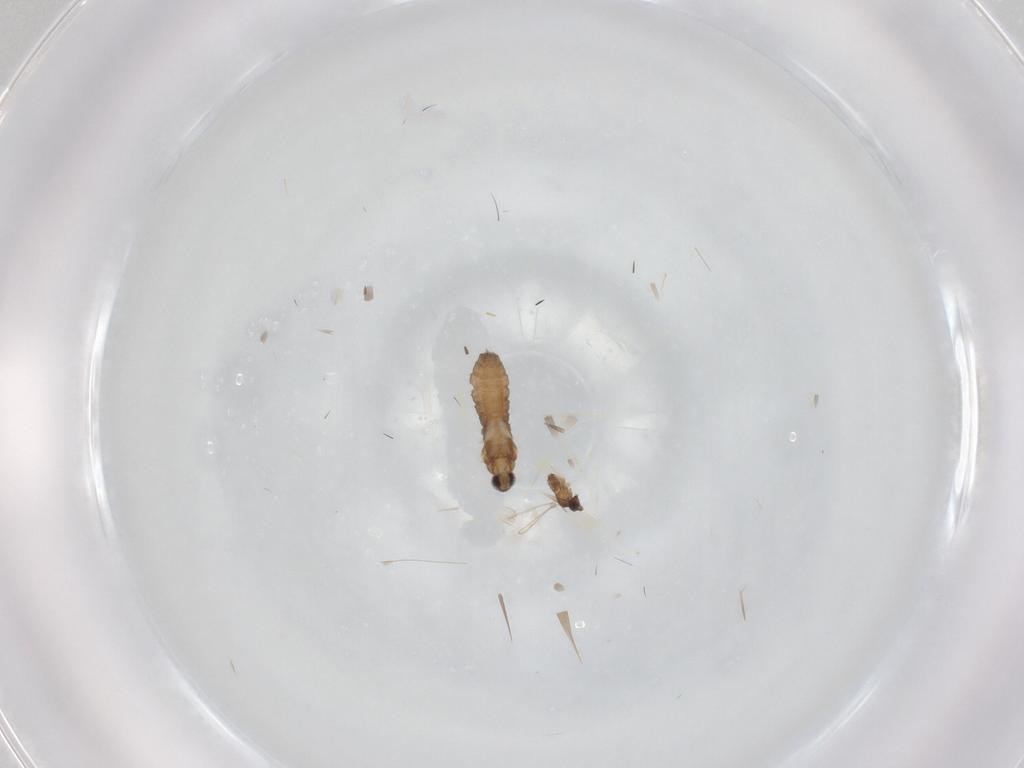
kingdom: Animalia
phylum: Arthropoda
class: Insecta
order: Diptera
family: Cecidomyiidae
